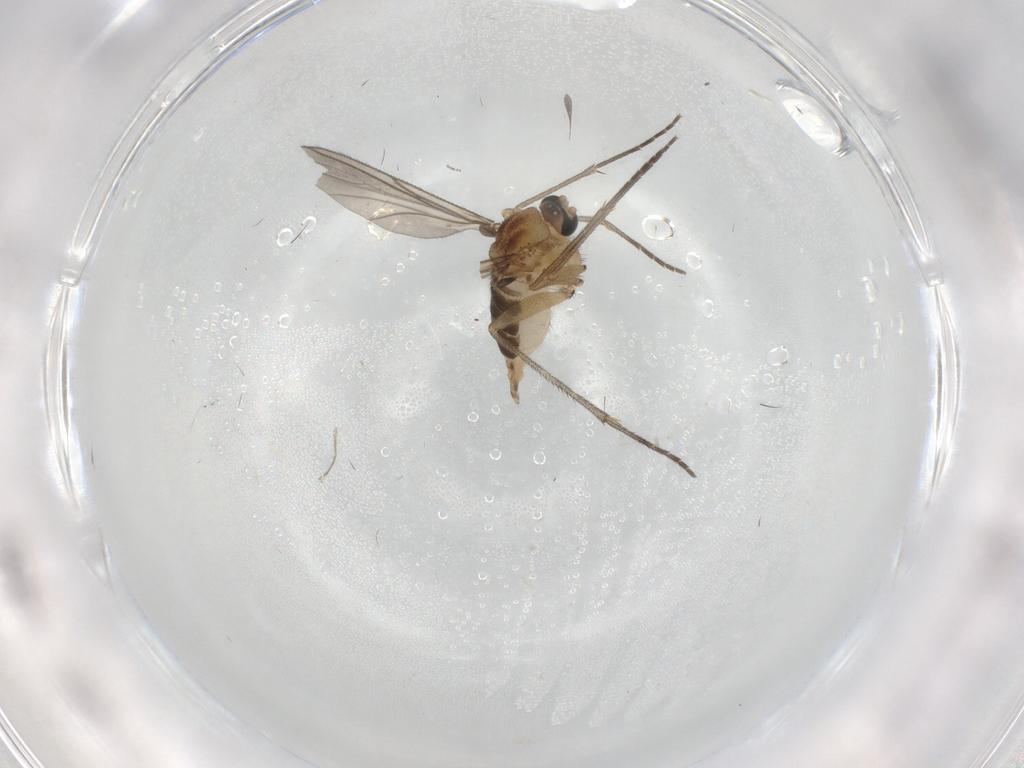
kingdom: Animalia
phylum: Arthropoda
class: Insecta
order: Diptera
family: Sciaridae
